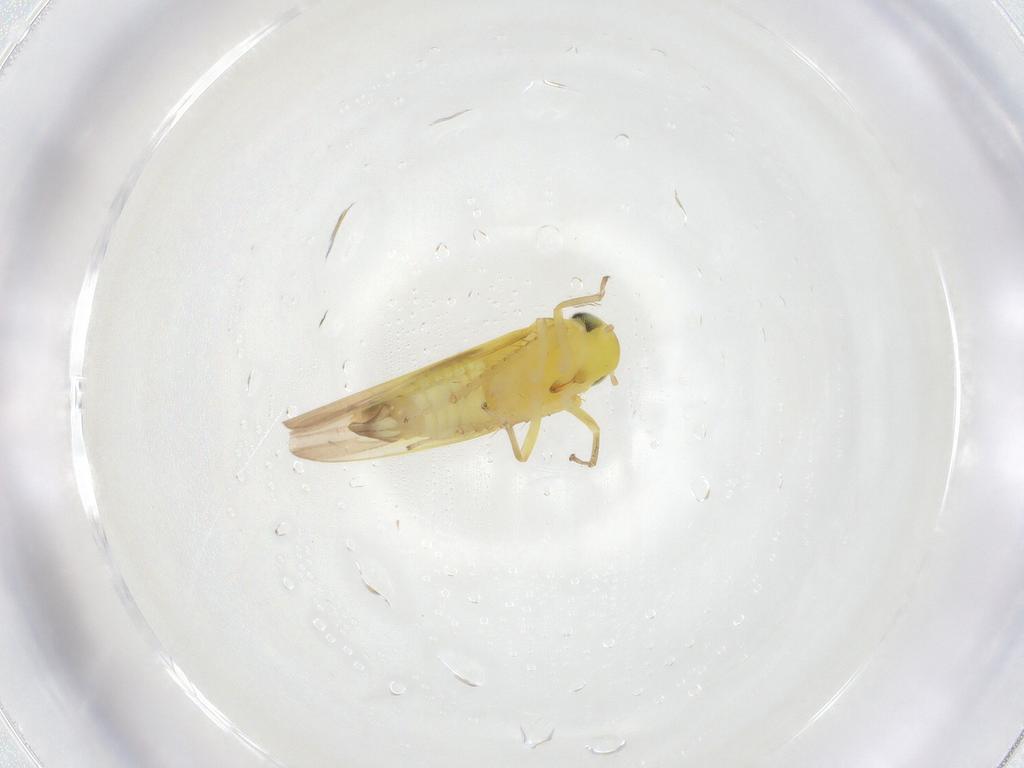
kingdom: Animalia
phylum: Arthropoda
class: Insecta
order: Hemiptera
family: Cicadellidae
